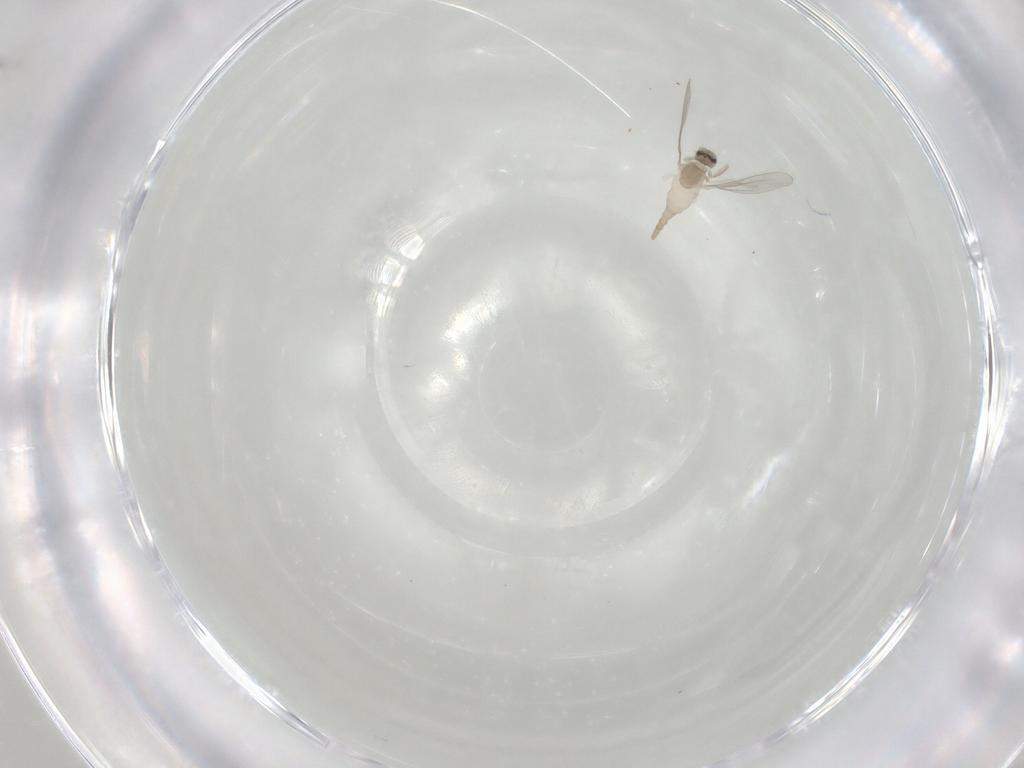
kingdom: Animalia
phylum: Arthropoda
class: Insecta
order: Diptera
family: Cecidomyiidae
